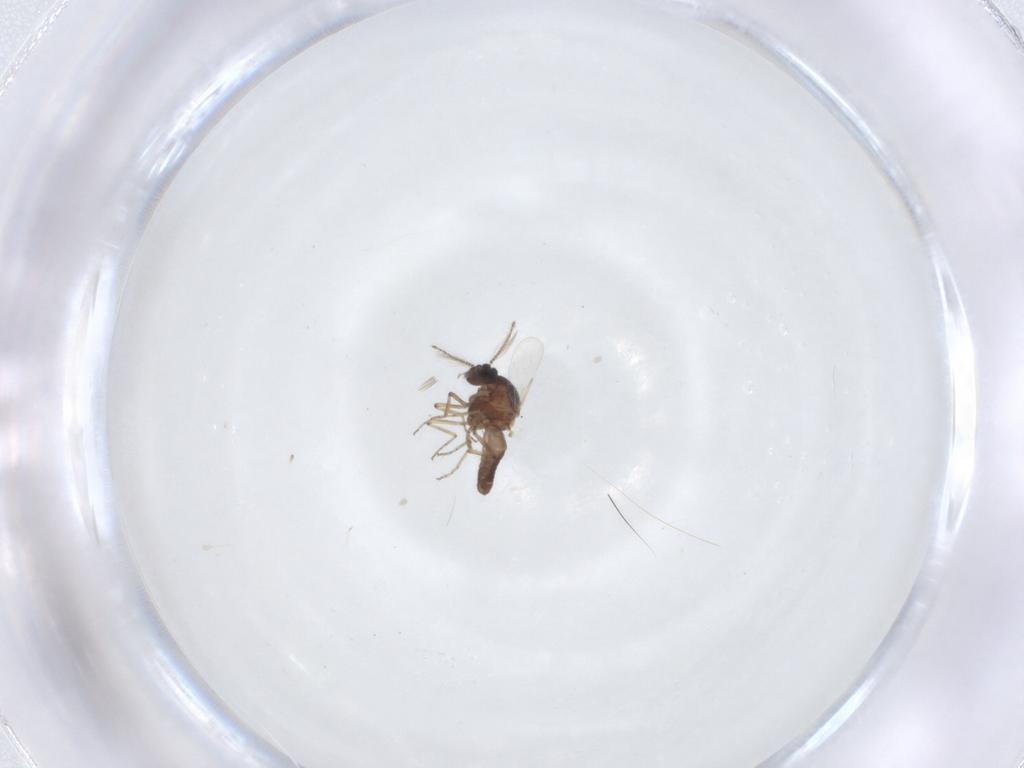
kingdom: Animalia
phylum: Arthropoda
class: Insecta
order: Diptera
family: Ceratopogonidae
